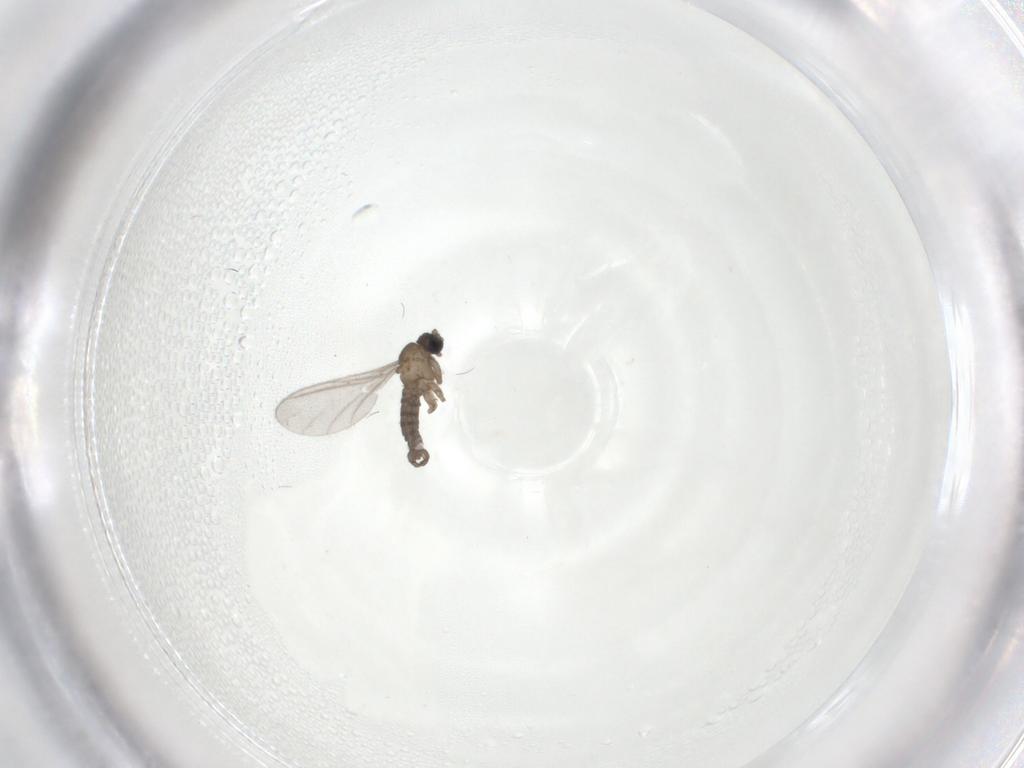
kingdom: Animalia
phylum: Arthropoda
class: Insecta
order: Diptera
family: Sciaridae
